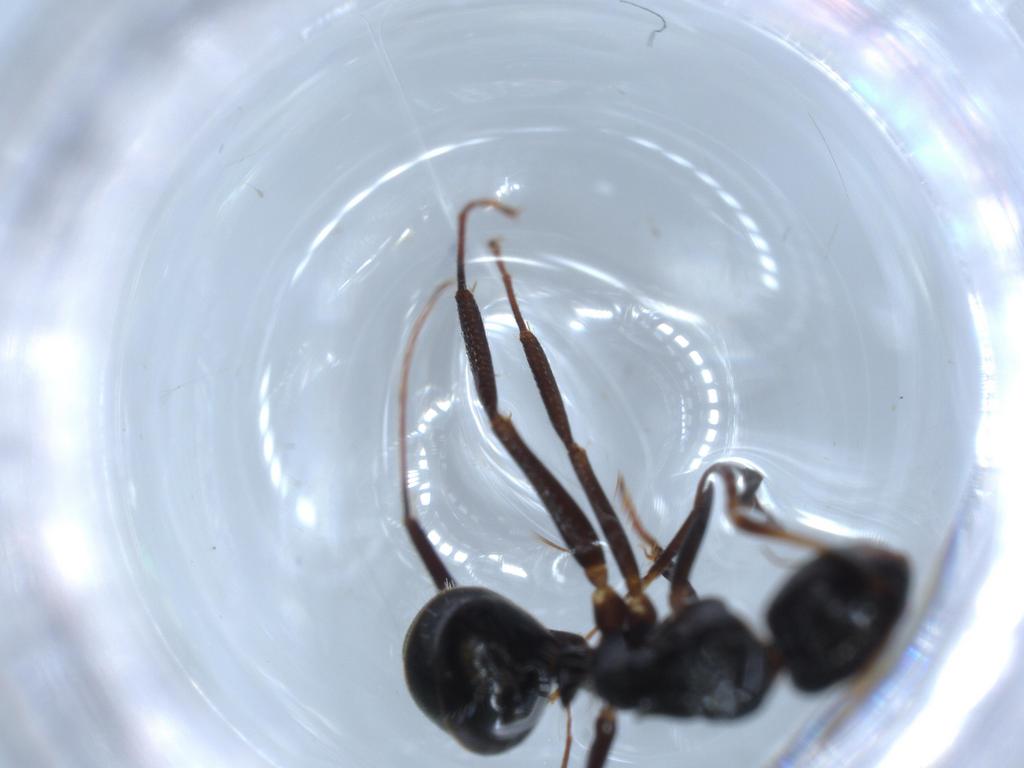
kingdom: Animalia
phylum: Arthropoda
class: Insecta
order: Hymenoptera
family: Formicidae
